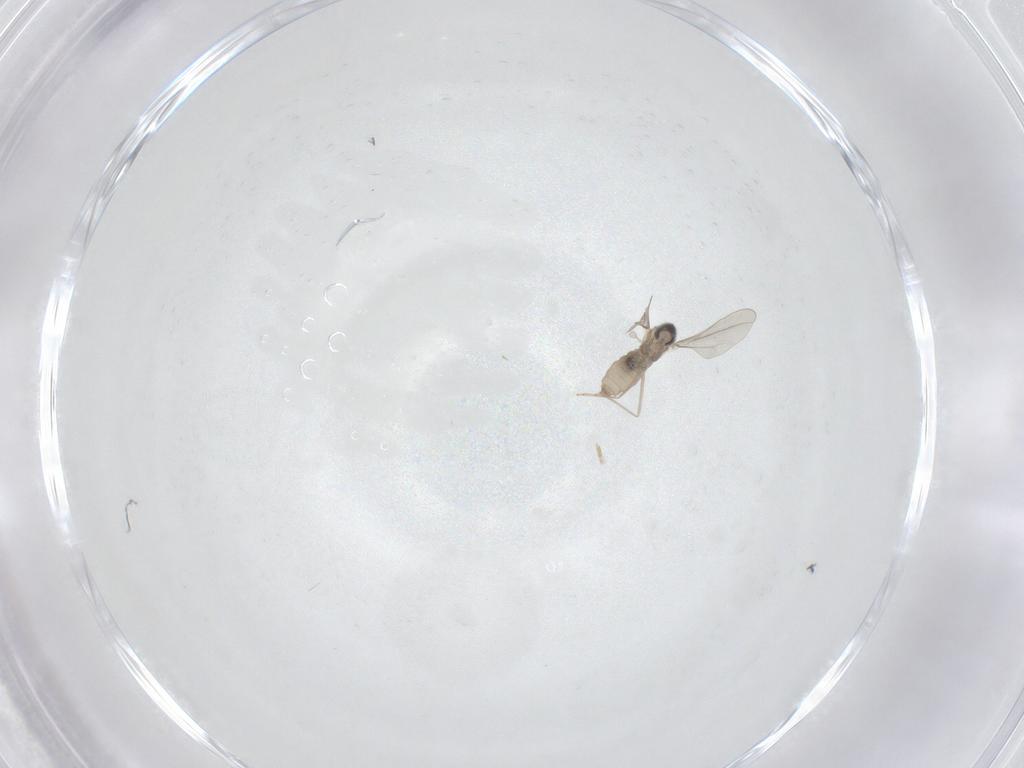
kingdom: Animalia
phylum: Arthropoda
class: Insecta
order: Diptera
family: Cecidomyiidae
